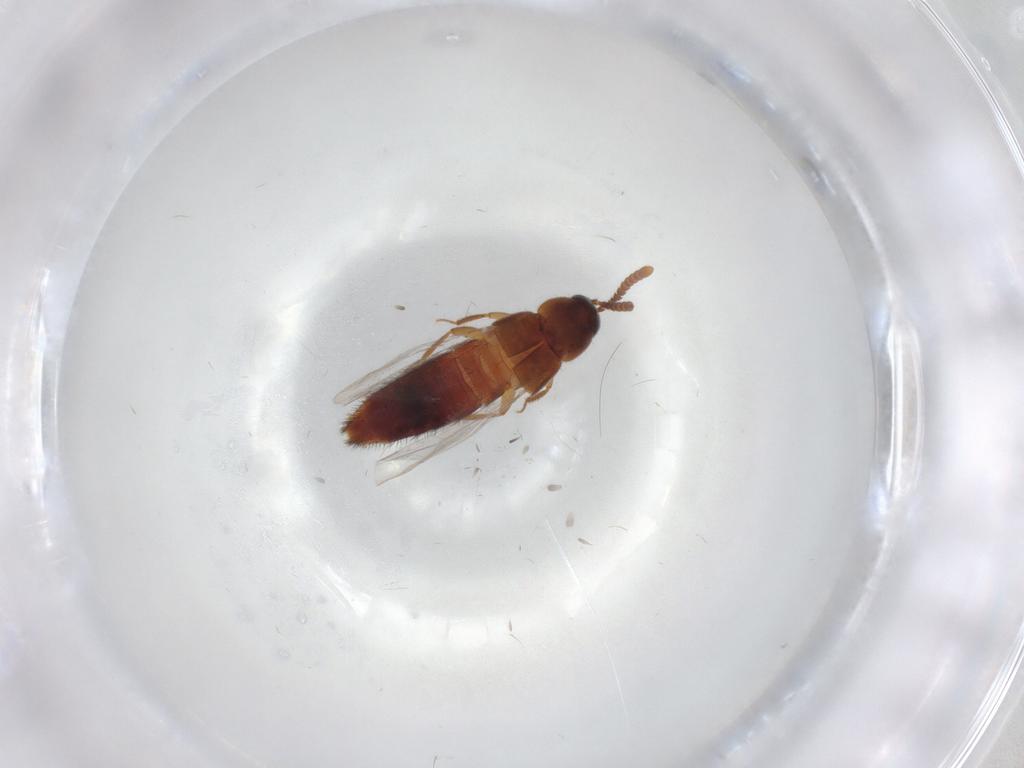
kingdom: Animalia
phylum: Arthropoda
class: Insecta
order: Coleoptera
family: Staphylinidae
